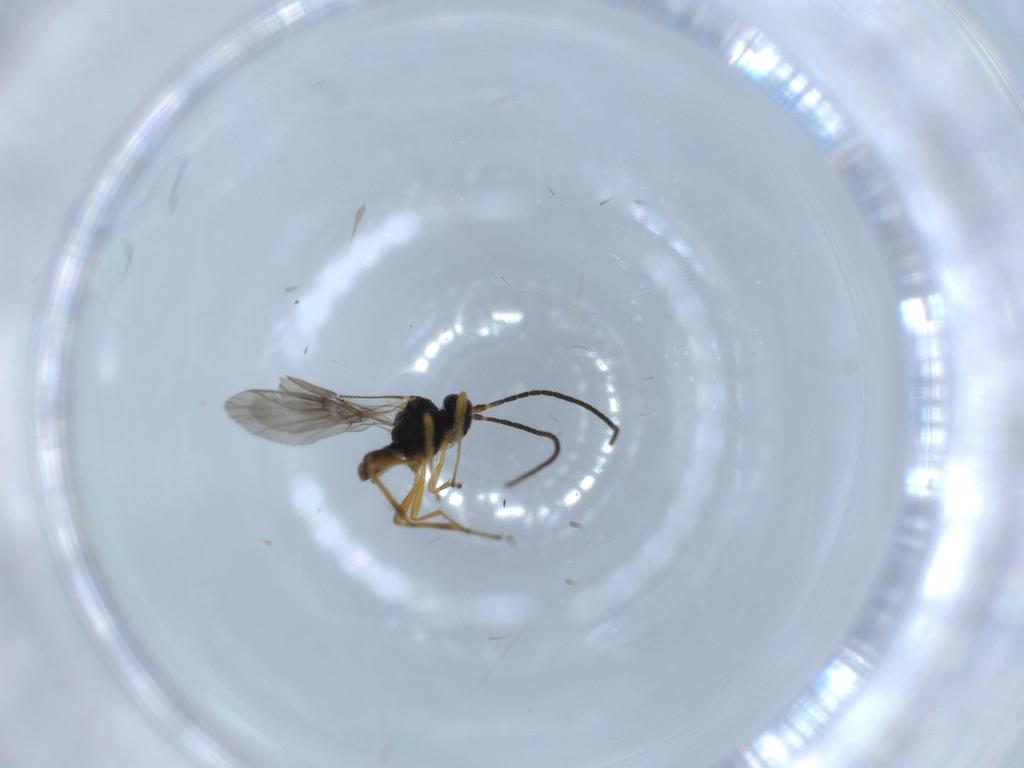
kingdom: Animalia
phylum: Arthropoda
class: Insecta
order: Hymenoptera
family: Braconidae
